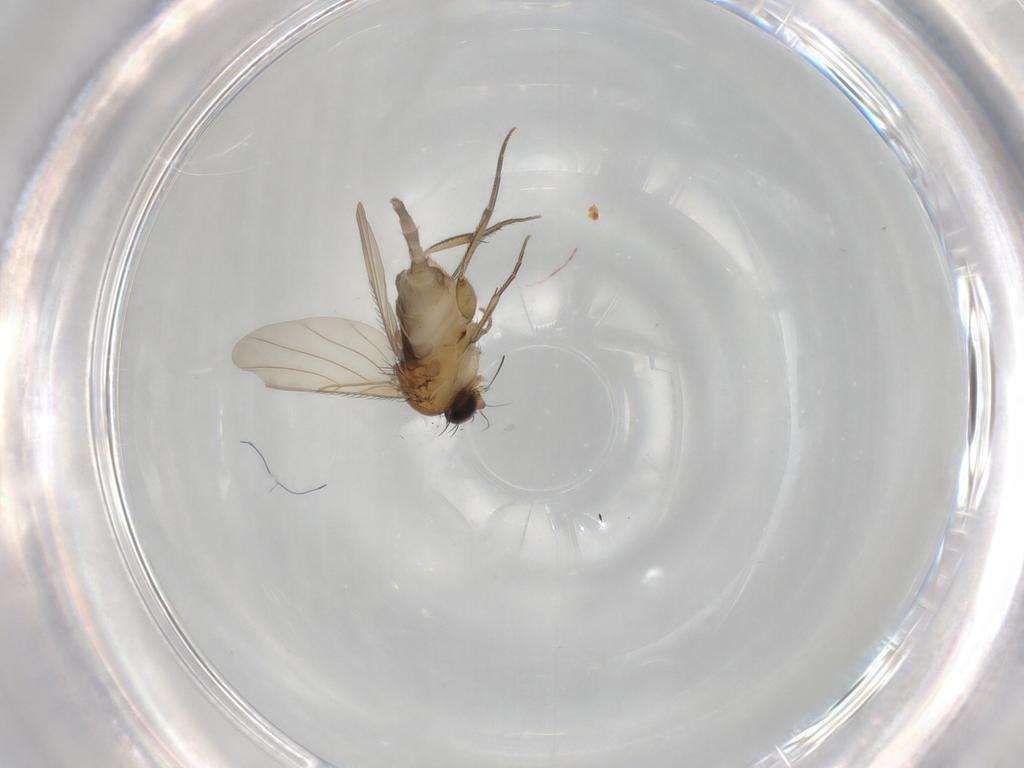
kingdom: Animalia
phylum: Arthropoda
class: Insecta
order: Diptera
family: Phoridae
